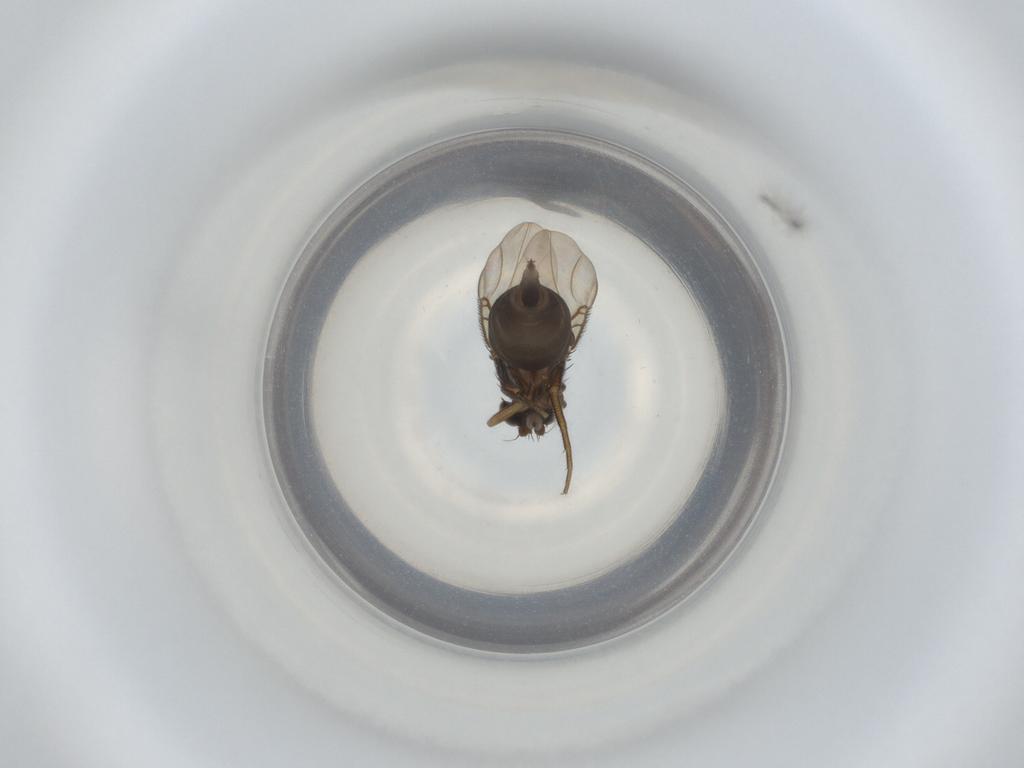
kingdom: Animalia
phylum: Arthropoda
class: Insecta
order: Diptera
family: Phoridae
